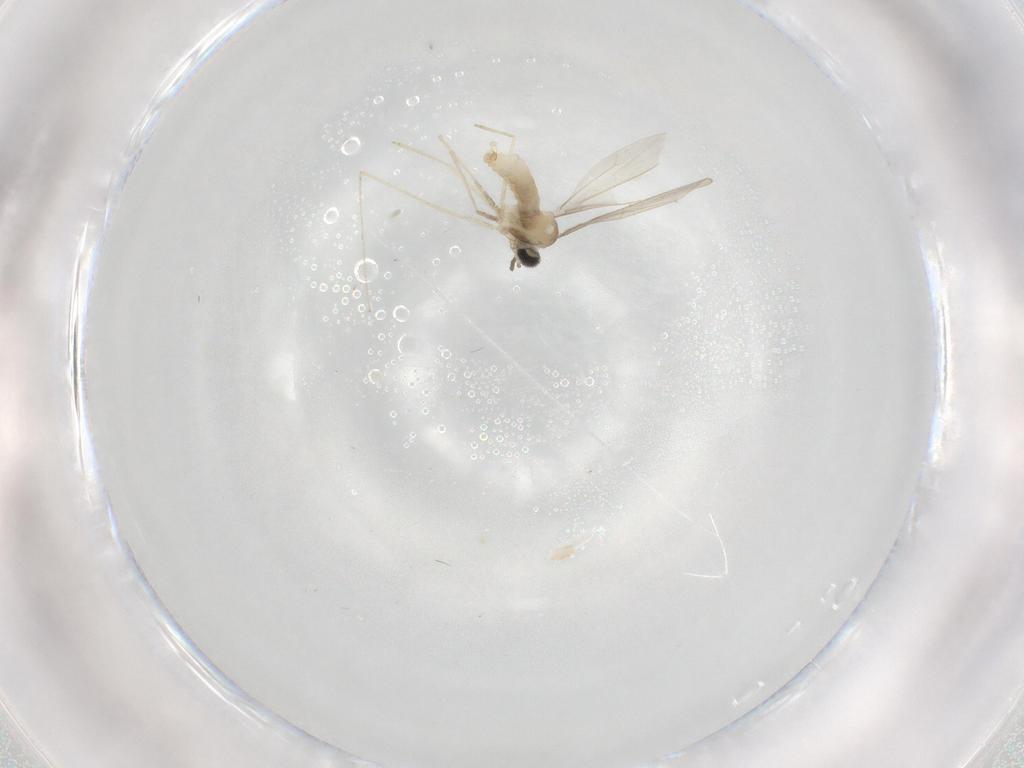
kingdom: Animalia
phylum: Arthropoda
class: Insecta
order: Diptera
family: Cecidomyiidae
